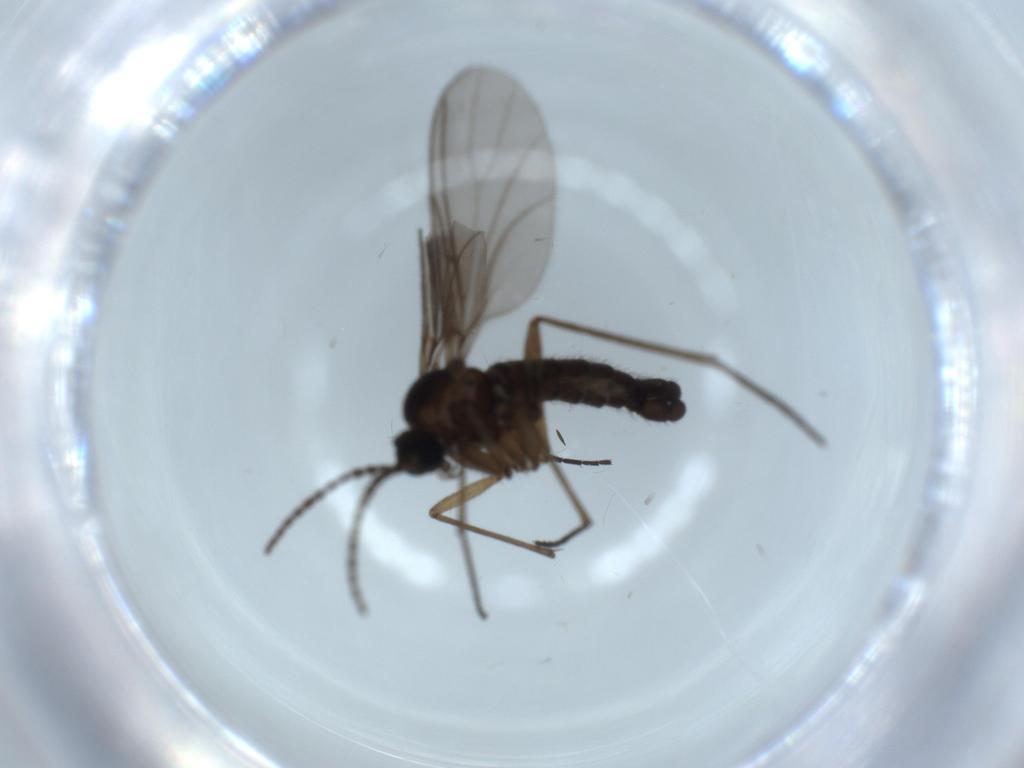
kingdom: Animalia
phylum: Arthropoda
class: Insecta
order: Diptera
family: Sciaridae
